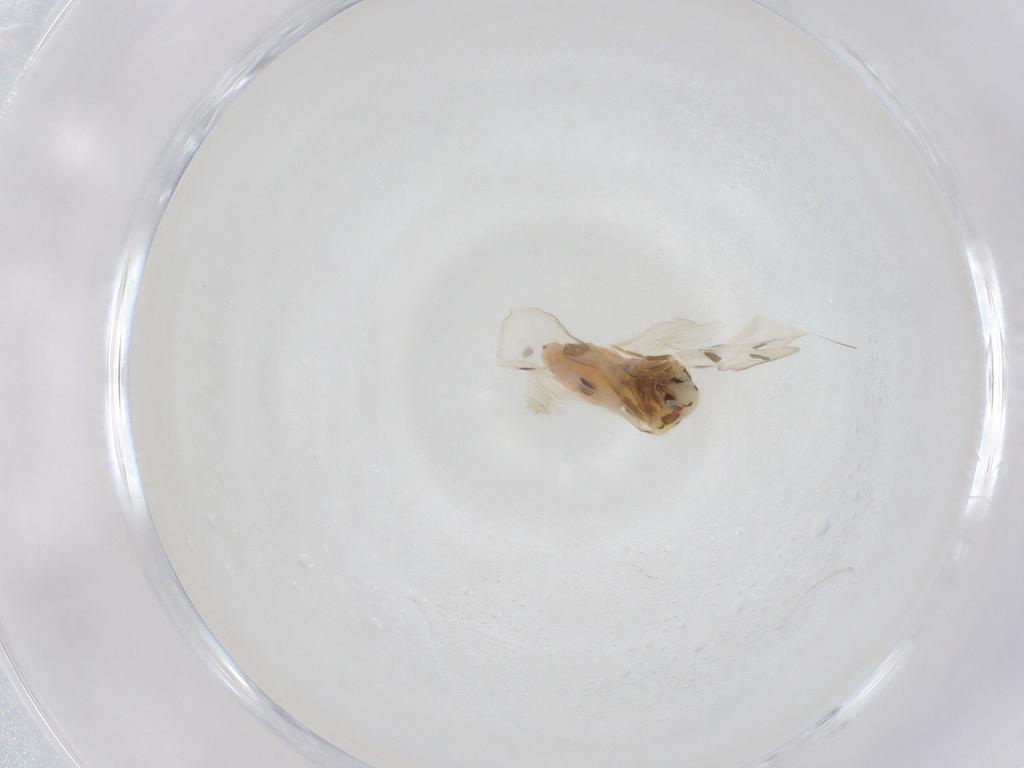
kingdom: Animalia
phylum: Arthropoda
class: Insecta
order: Hemiptera
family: Aleyrodidae
